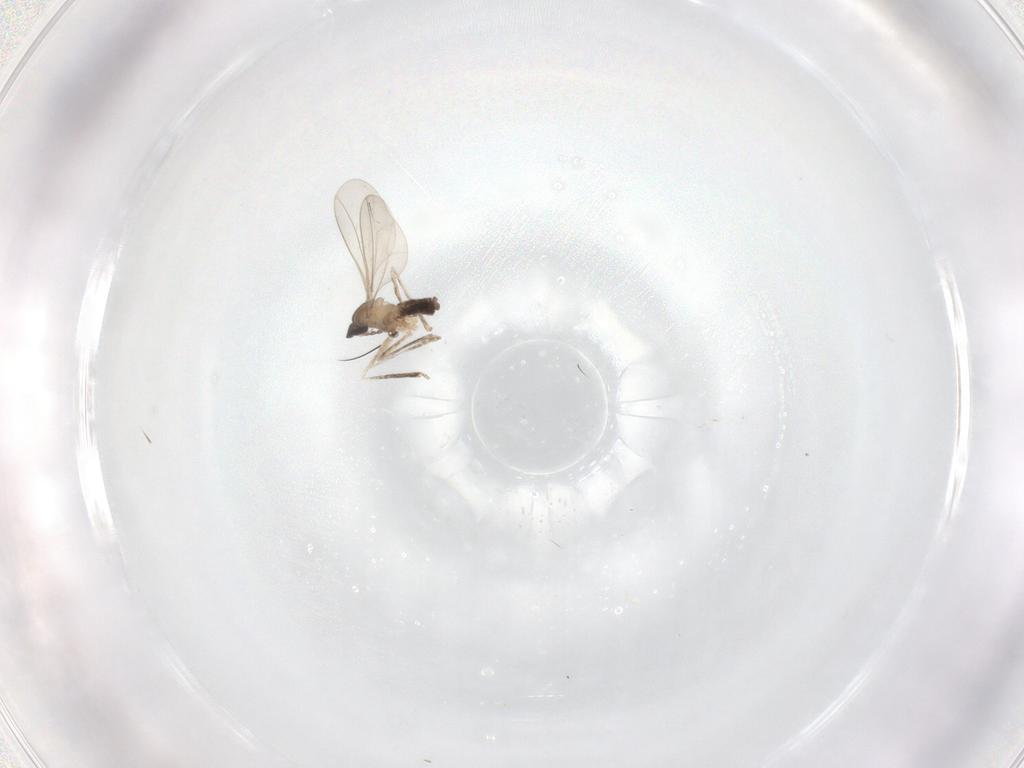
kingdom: Animalia
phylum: Arthropoda
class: Insecta
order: Diptera
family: Cecidomyiidae
